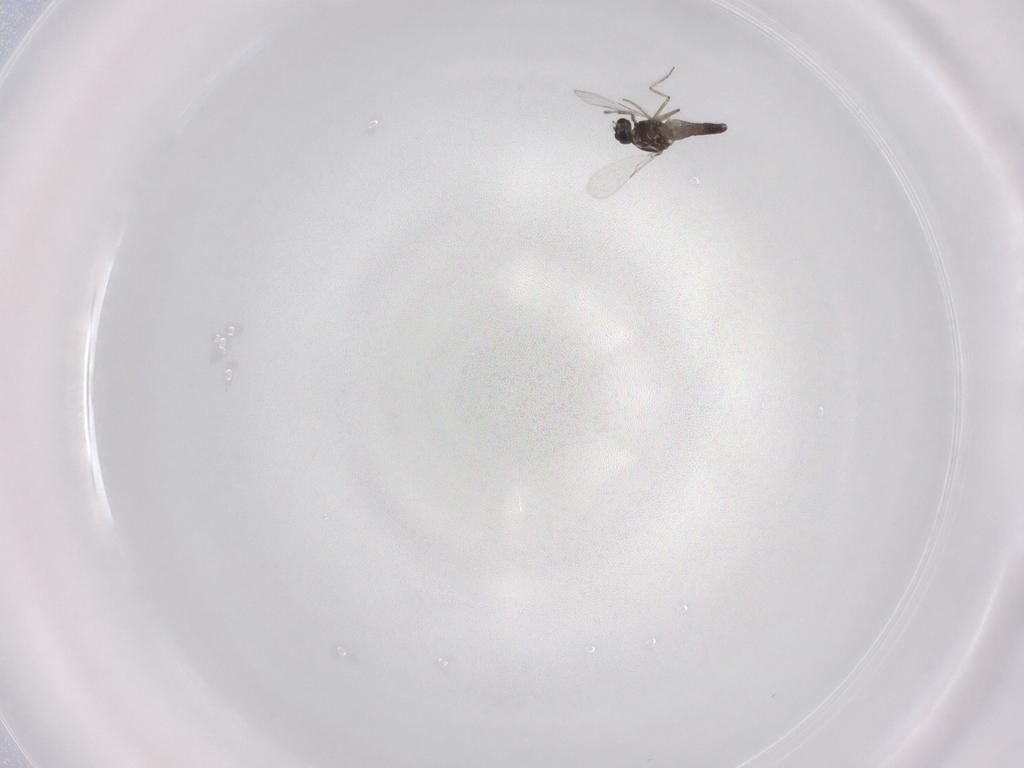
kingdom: Animalia
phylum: Arthropoda
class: Insecta
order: Diptera
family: Ceratopogonidae
